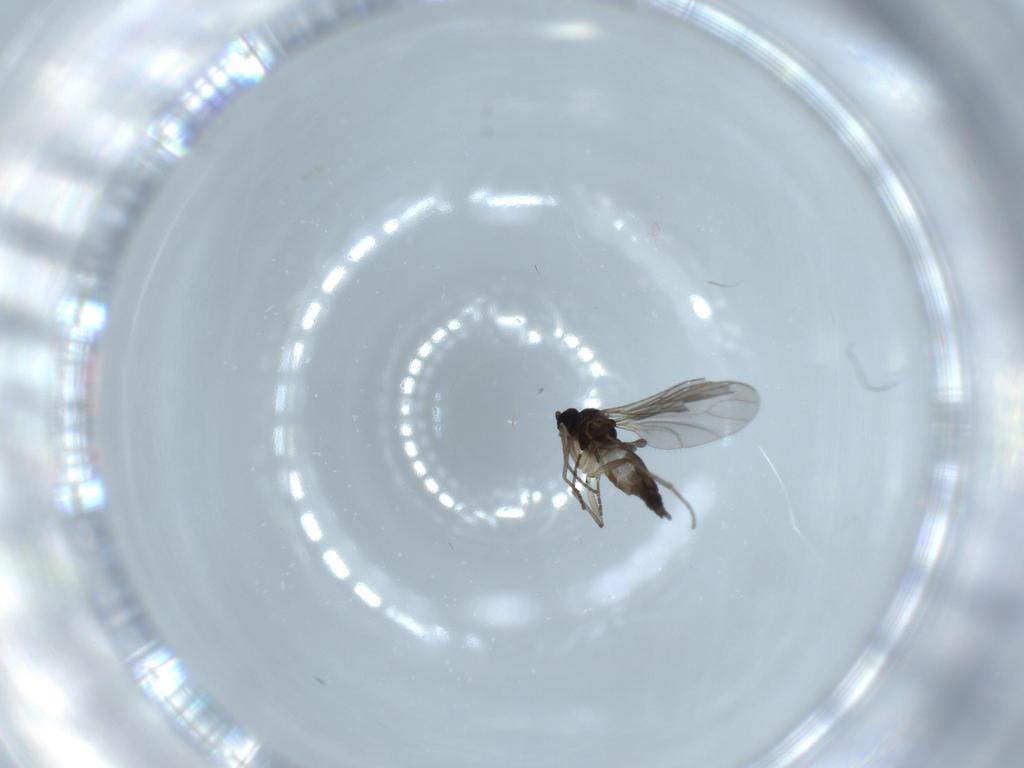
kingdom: Animalia
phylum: Arthropoda
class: Insecta
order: Diptera
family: Sciaridae
